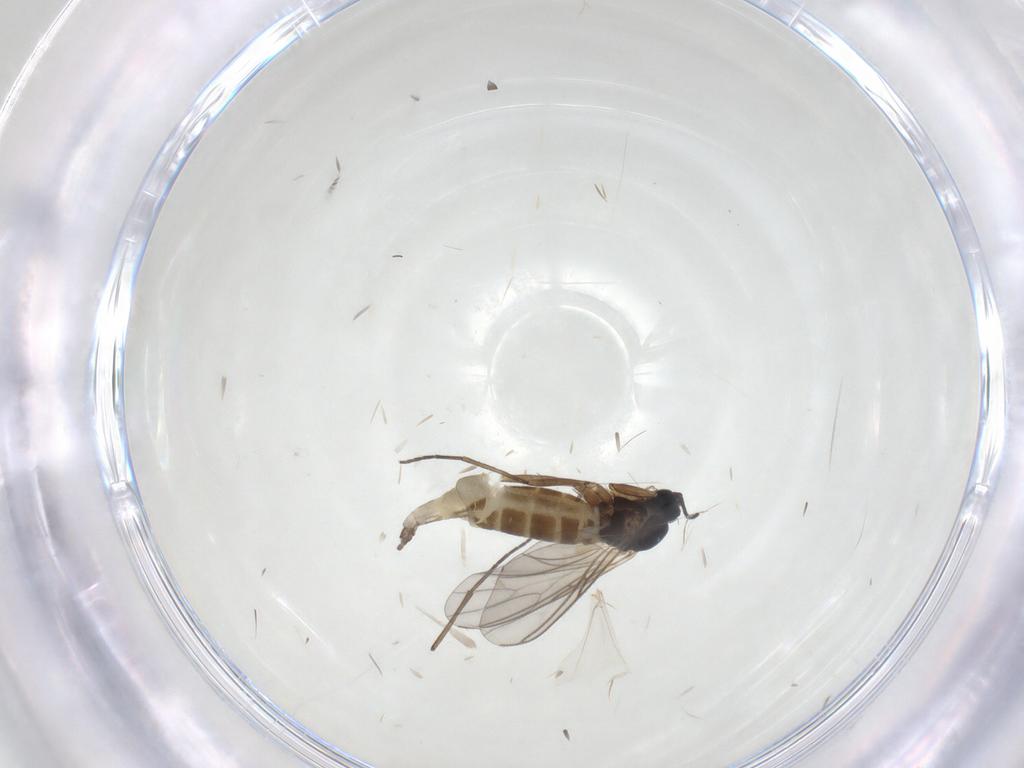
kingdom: Animalia
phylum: Arthropoda
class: Insecta
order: Diptera
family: Sciaridae
